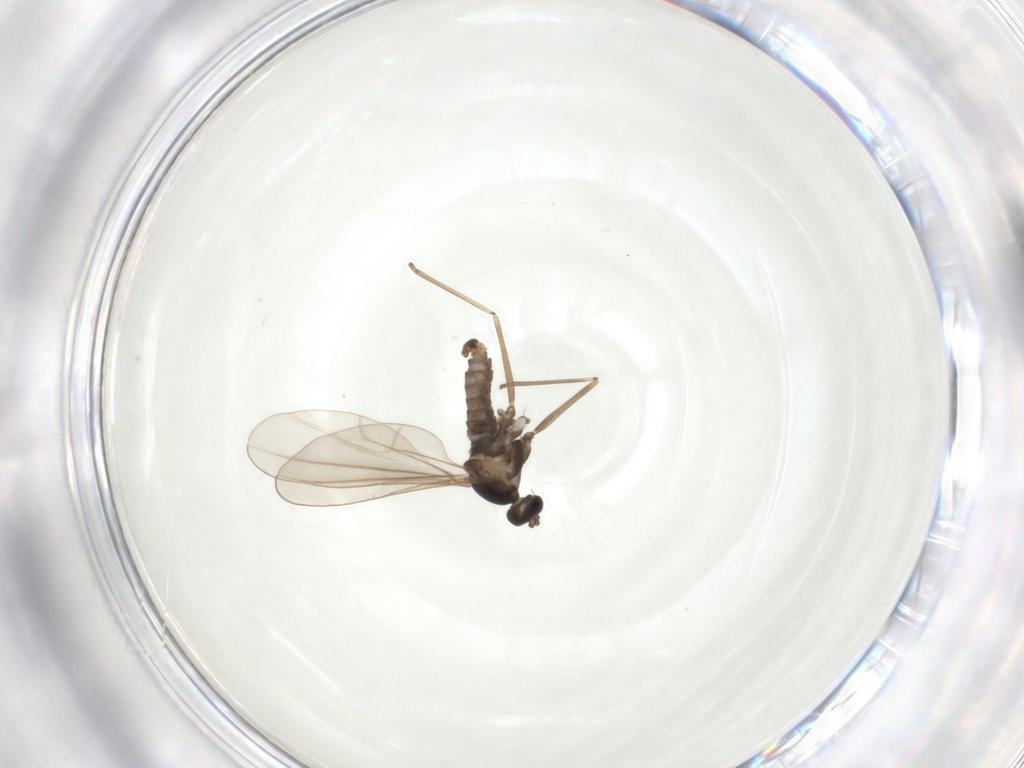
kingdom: Animalia
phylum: Arthropoda
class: Insecta
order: Diptera
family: Cecidomyiidae
